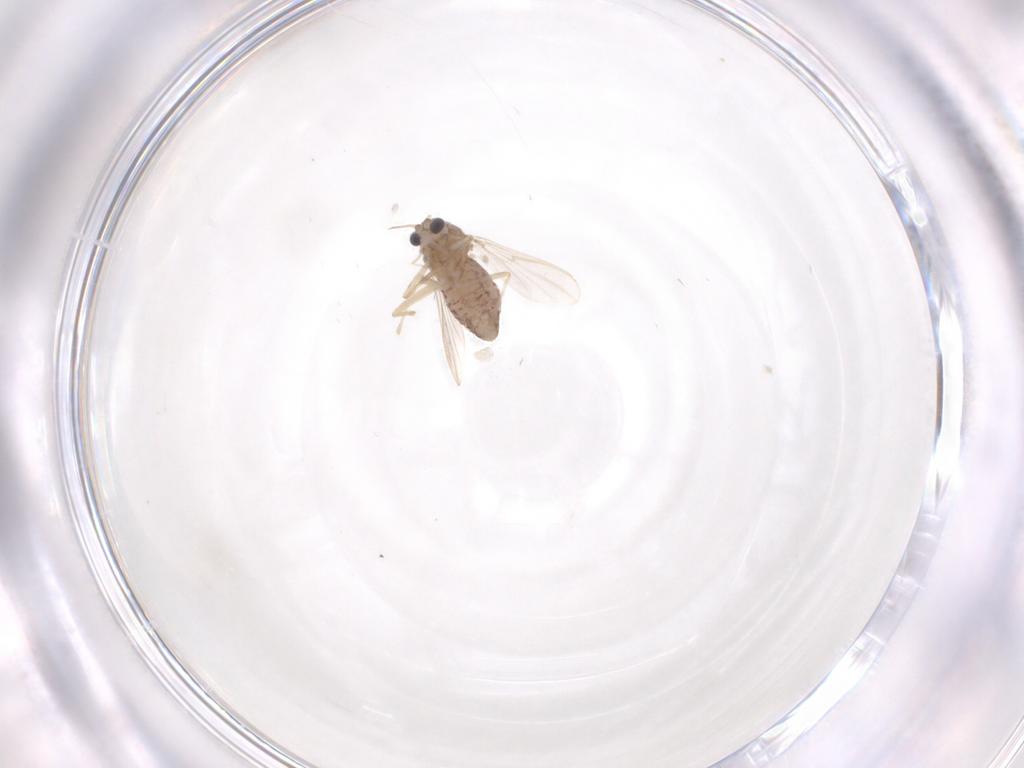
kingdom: Animalia
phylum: Arthropoda
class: Insecta
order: Diptera
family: Chironomidae
